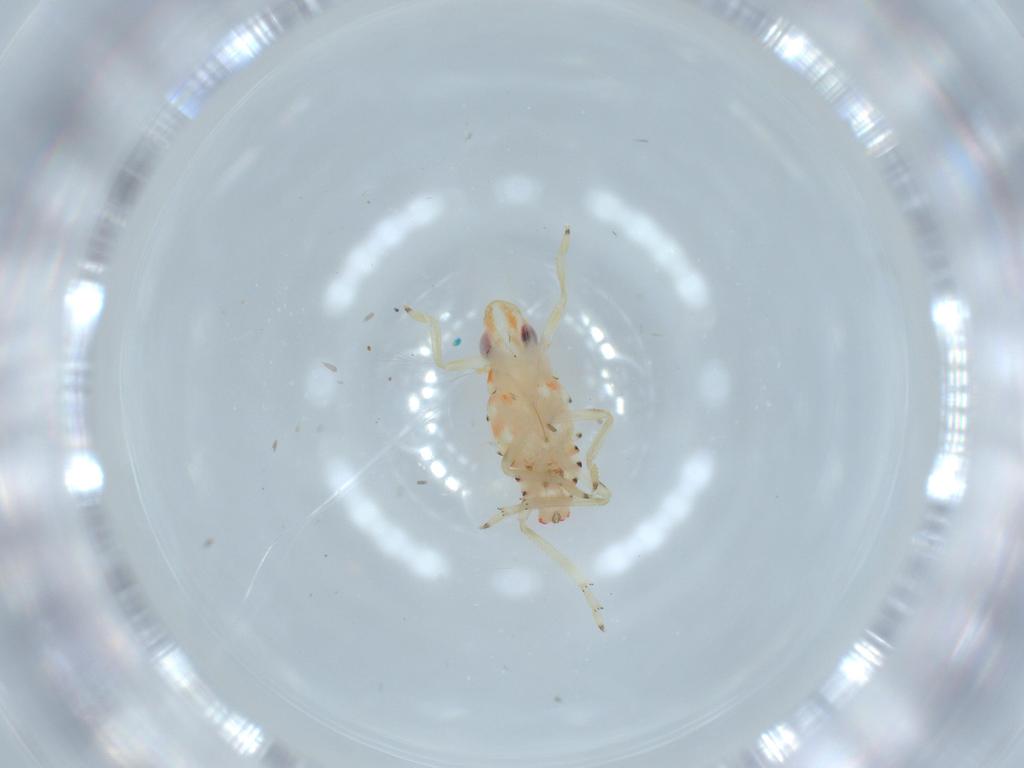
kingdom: Animalia
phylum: Arthropoda
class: Insecta
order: Hemiptera
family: Tropiduchidae
